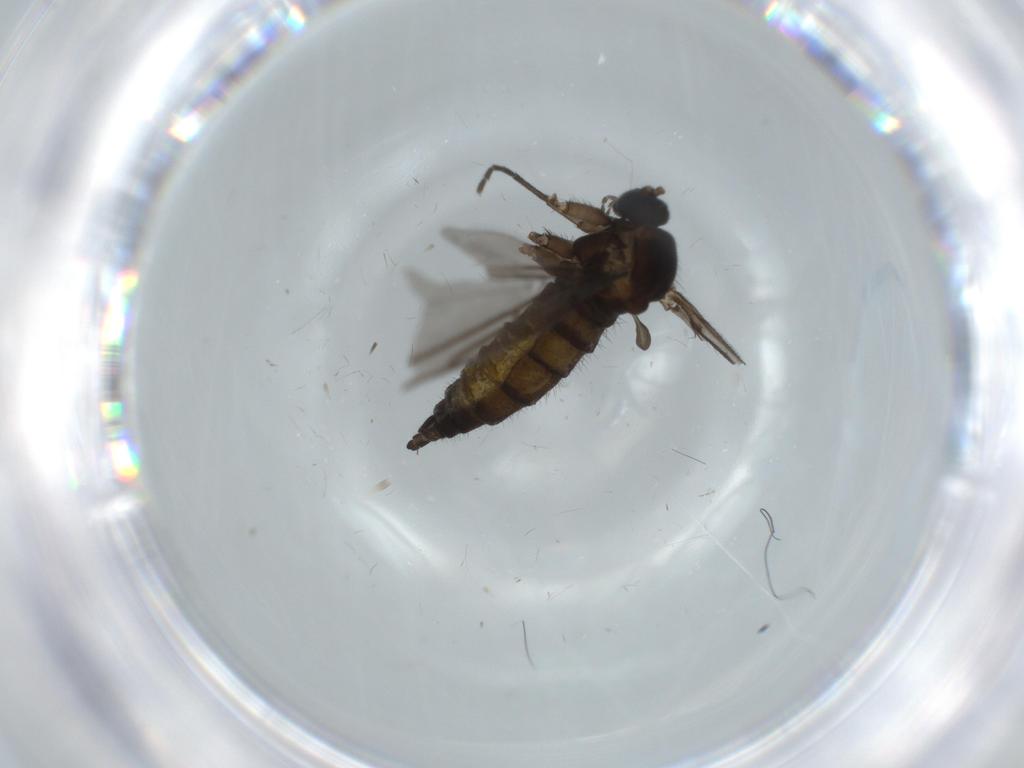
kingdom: Animalia
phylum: Arthropoda
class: Insecta
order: Diptera
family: Sciaridae
